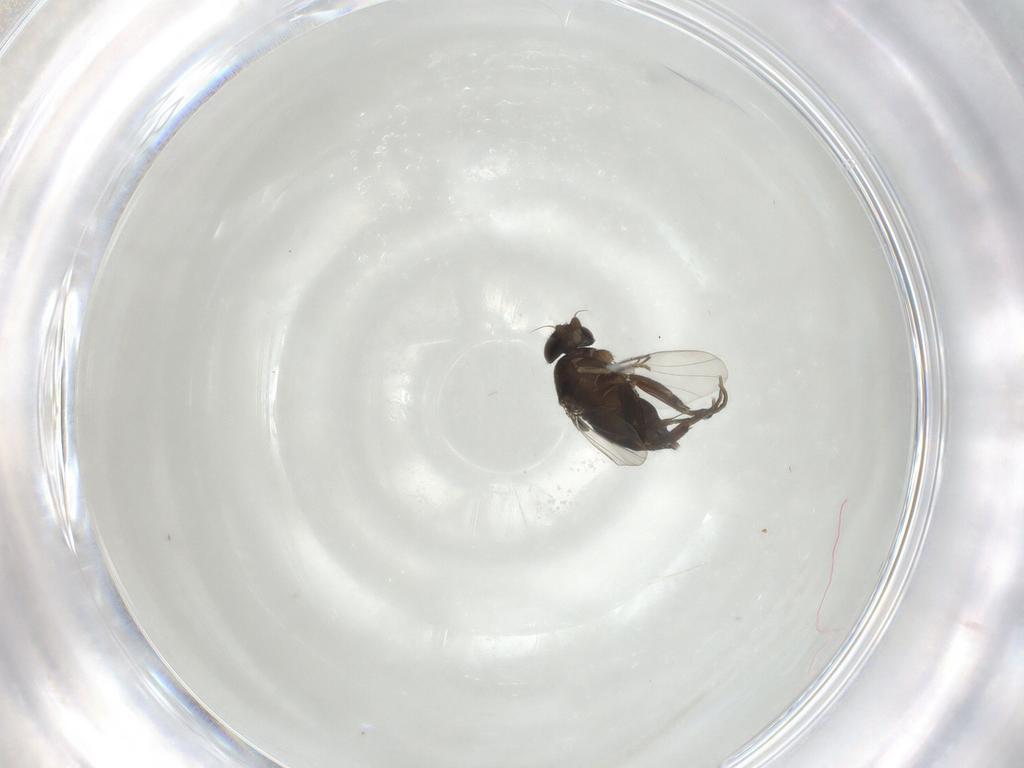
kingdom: Animalia
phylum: Arthropoda
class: Insecta
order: Diptera
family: Phoridae
